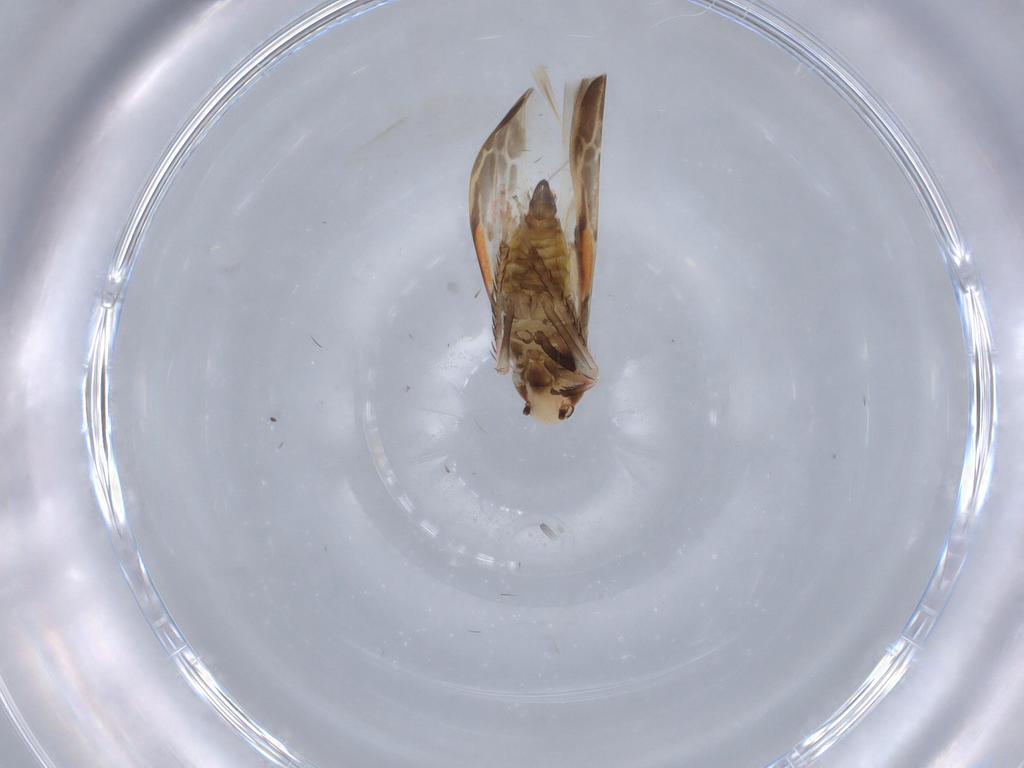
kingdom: Animalia
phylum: Arthropoda
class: Insecta
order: Hemiptera
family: Cicadellidae
